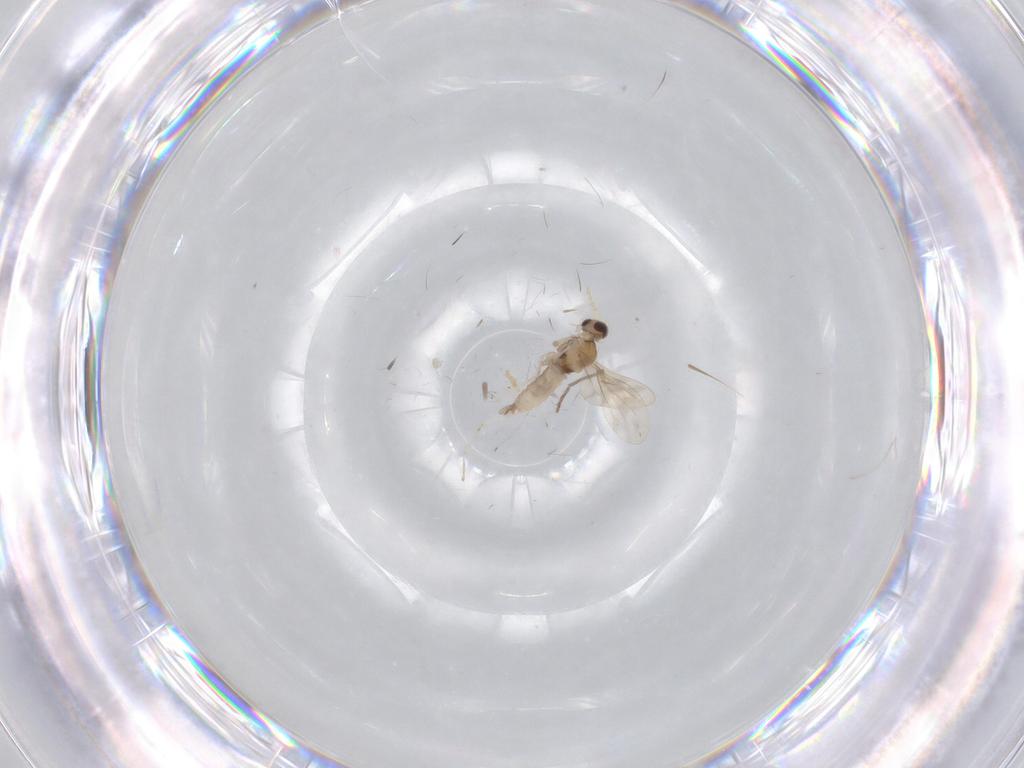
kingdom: Animalia
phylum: Arthropoda
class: Insecta
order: Diptera
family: Cecidomyiidae
